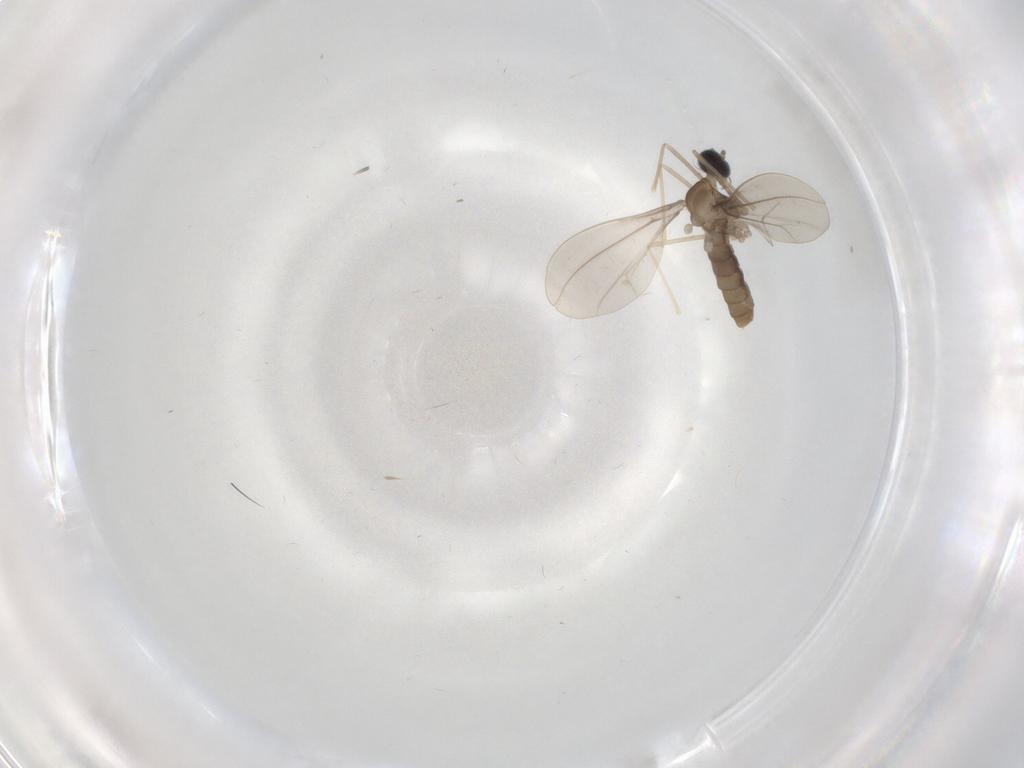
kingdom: Animalia
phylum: Arthropoda
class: Insecta
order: Diptera
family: Cecidomyiidae
